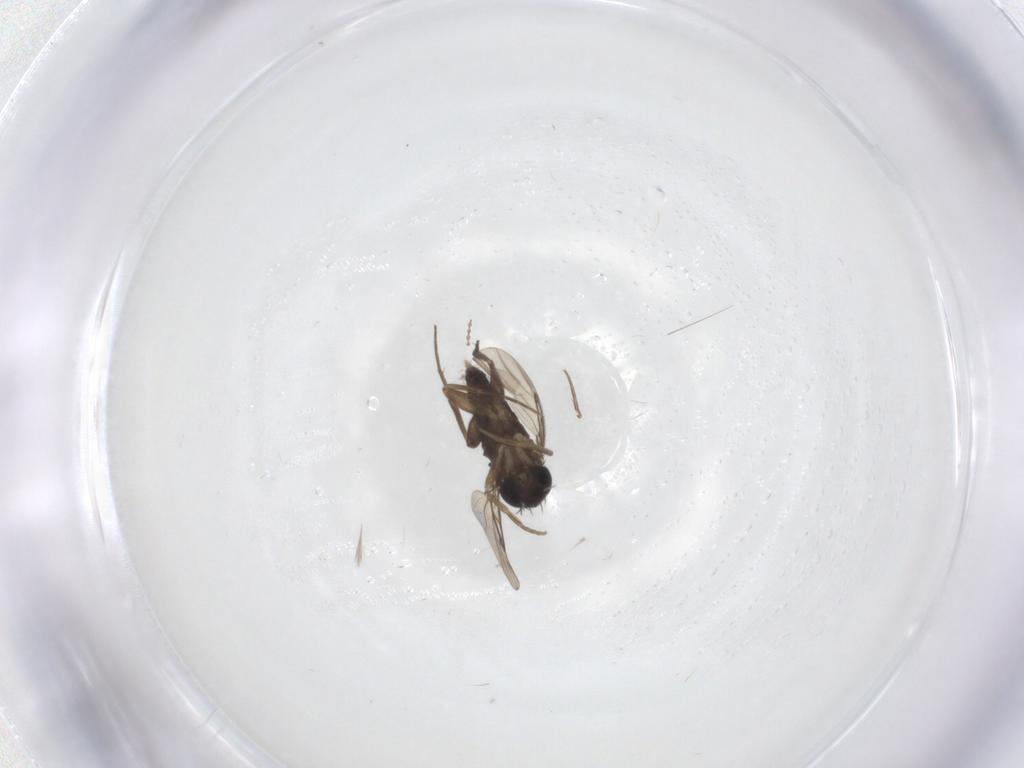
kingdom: Animalia
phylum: Arthropoda
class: Insecta
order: Diptera
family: Phoridae
